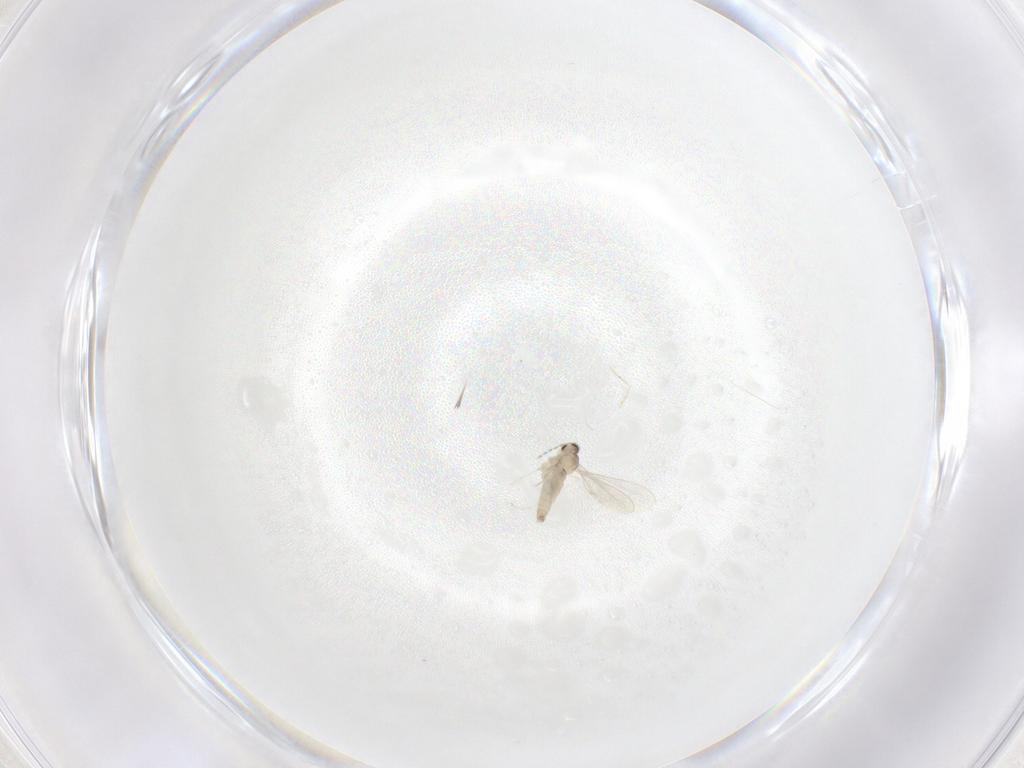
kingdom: Animalia
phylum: Arthropoda
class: Insecta
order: Diptera
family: Cecidomyiidae
